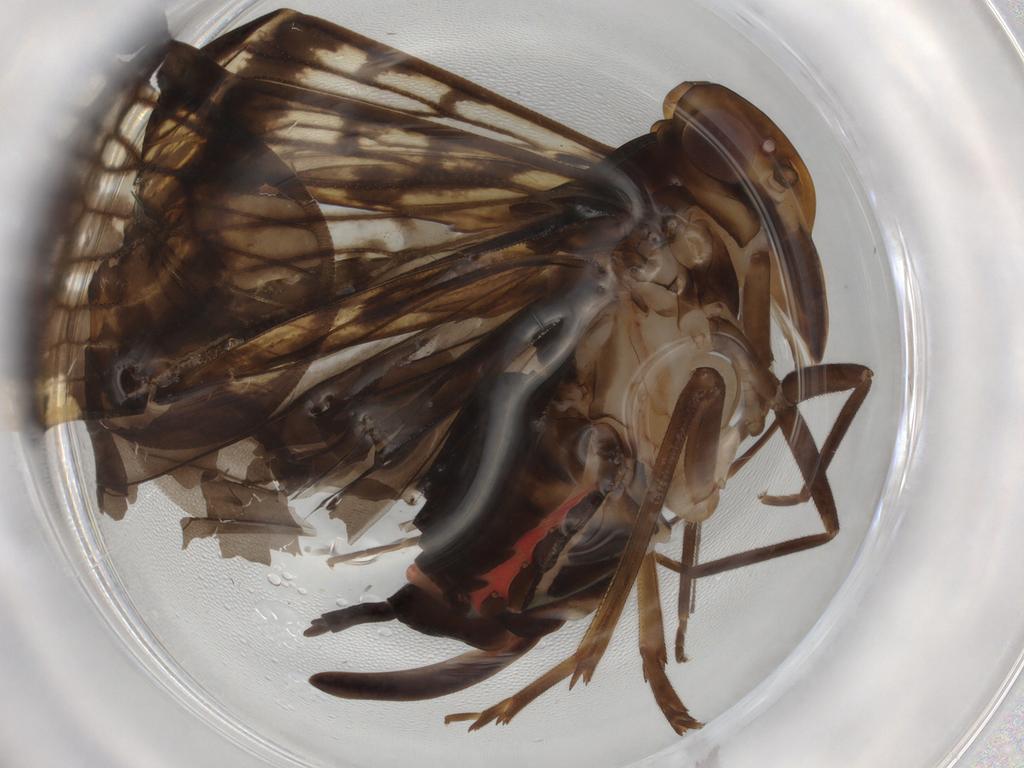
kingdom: Animalia
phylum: Arthropoda
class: Insecta
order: Hemiptera
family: Cixiidae
